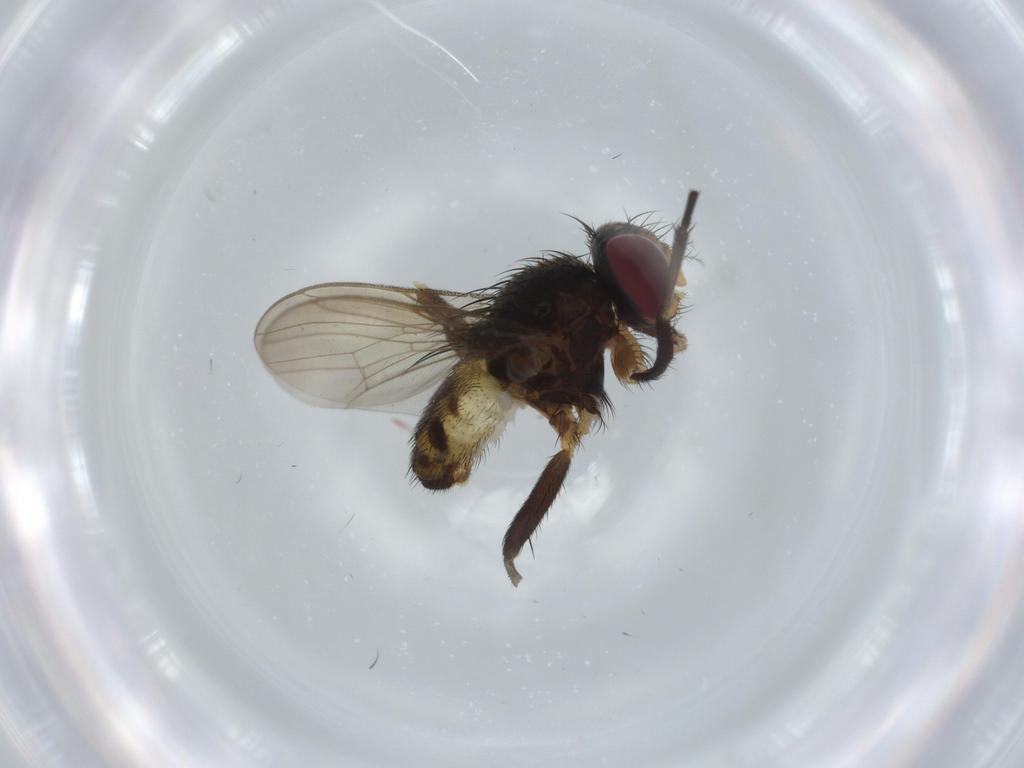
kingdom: Animalia
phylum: Arthropoda
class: Insecta
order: Diptera
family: Anthomyiidae
